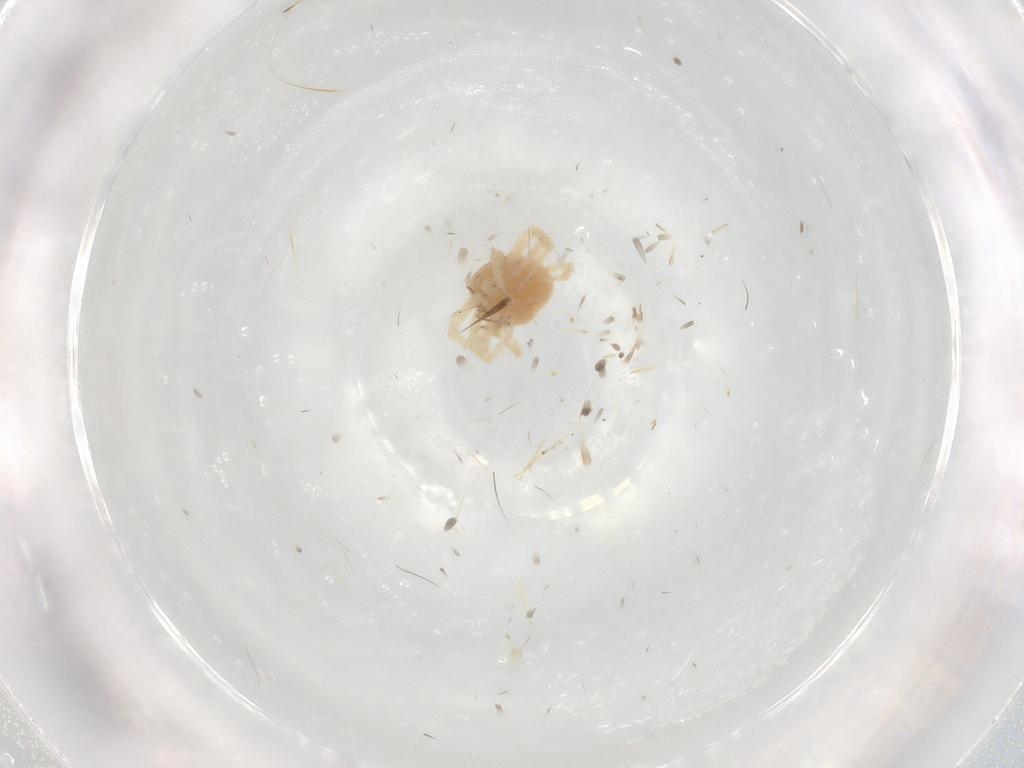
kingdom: Animalia
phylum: Arthropoda
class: Arachnida
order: Trombidiformes
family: Anystidae
